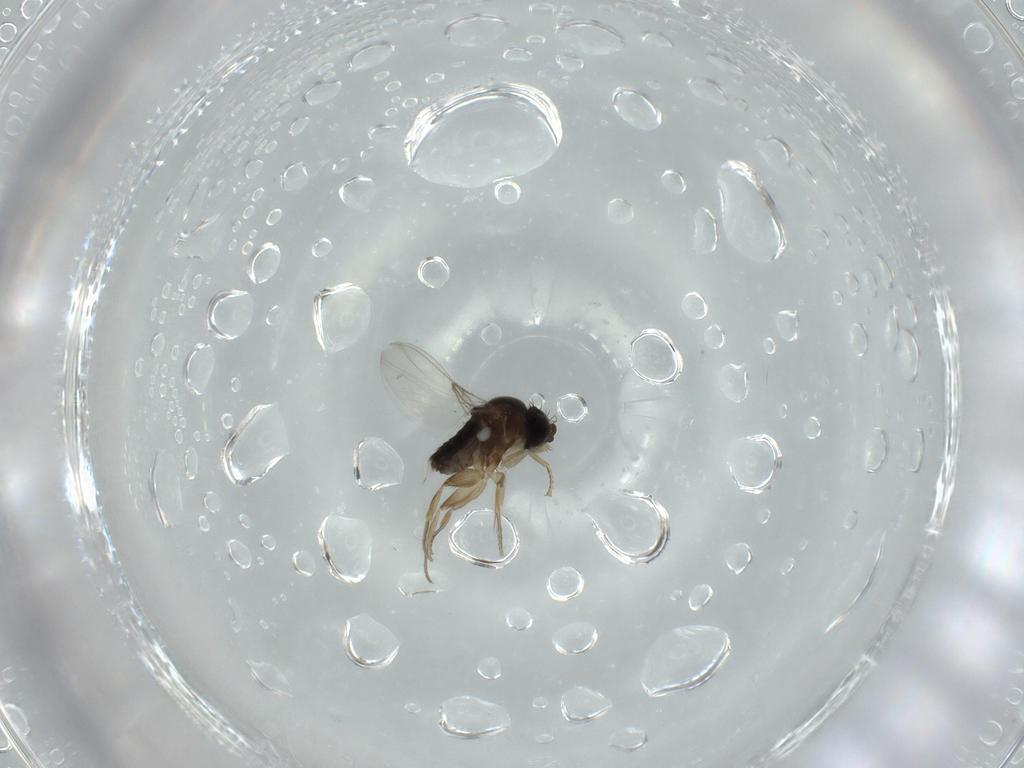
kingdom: Animalia
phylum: Arthropoda
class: Insecta
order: Diptera
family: Phoridae
